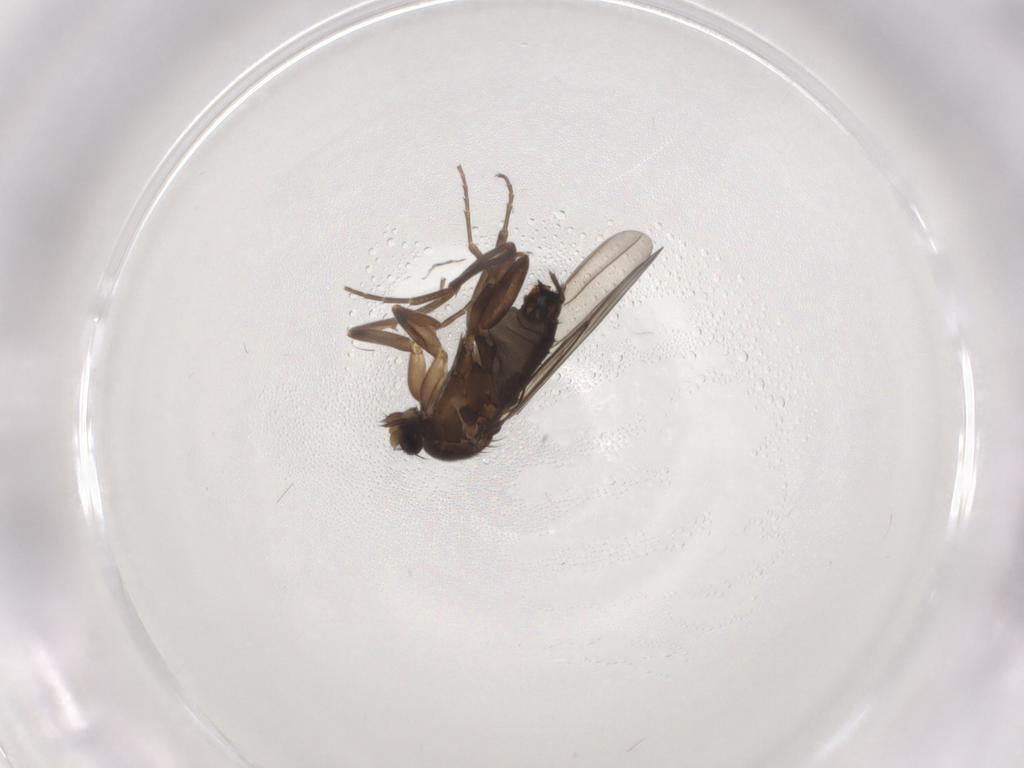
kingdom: Animalia
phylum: Arthropoda
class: Insecta
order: Diptera
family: Sciaridae
